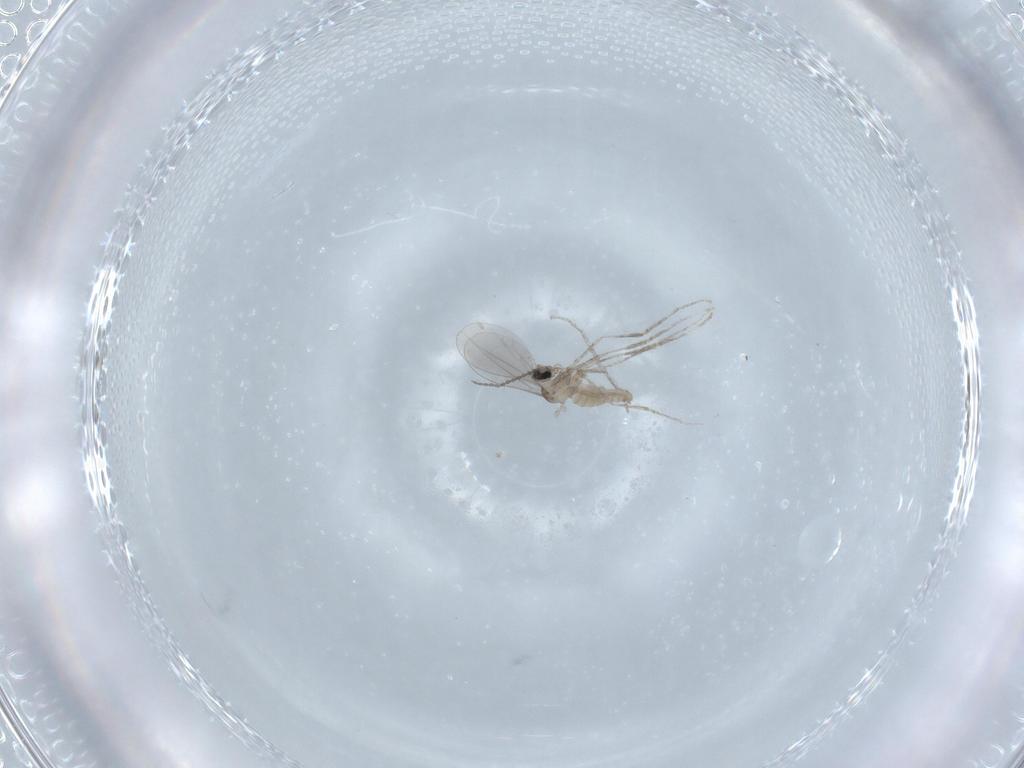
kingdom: Animalia
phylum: Arthropoda
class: Insecta
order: Diptera
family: Cecidomyiidae
